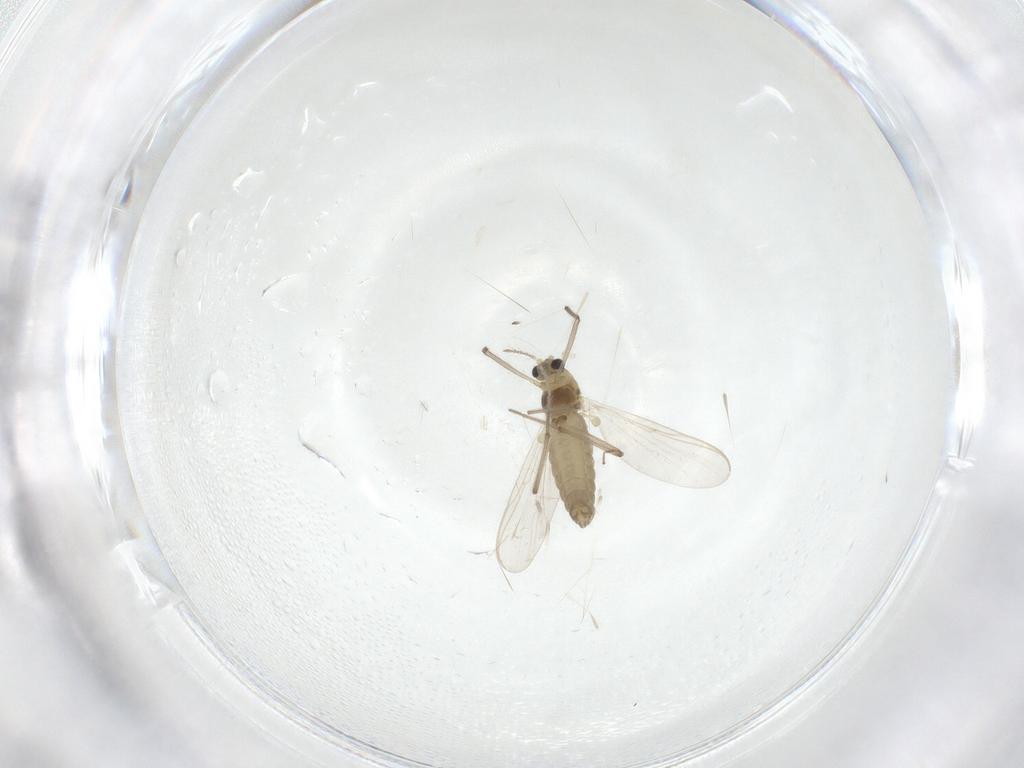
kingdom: Animalia
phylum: Arthropoda
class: Insecta
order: Diptera
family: Chironomidae
